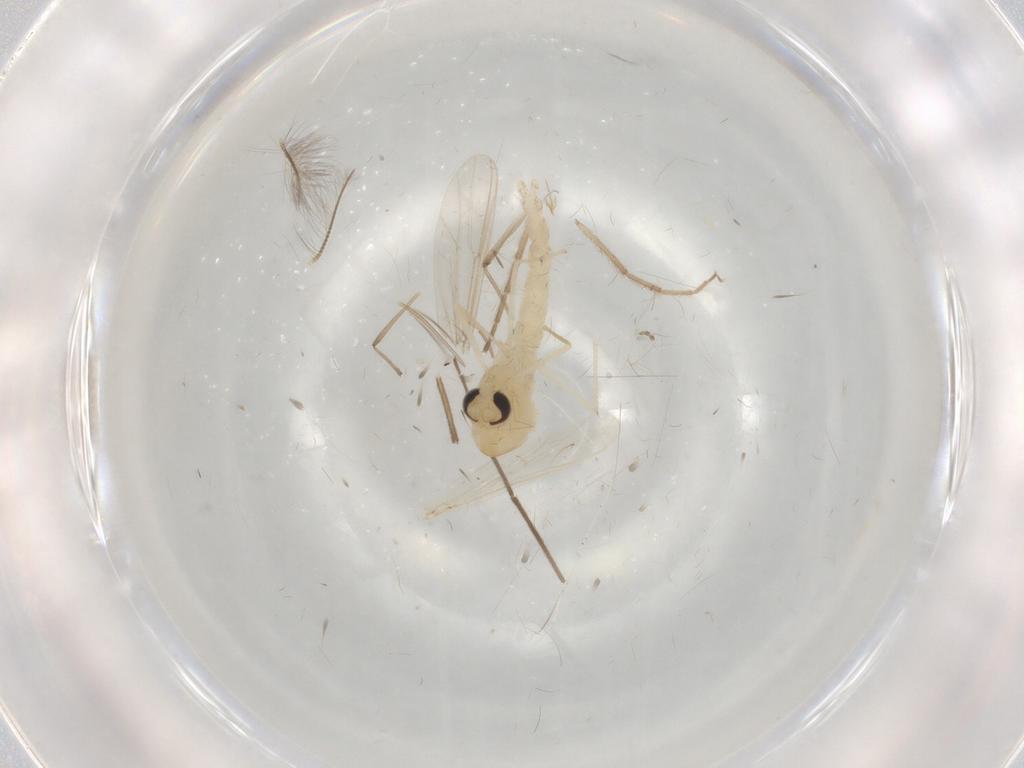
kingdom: Animalia
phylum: Arthropoda
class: Insecta
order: Diptera
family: Chironomidae
